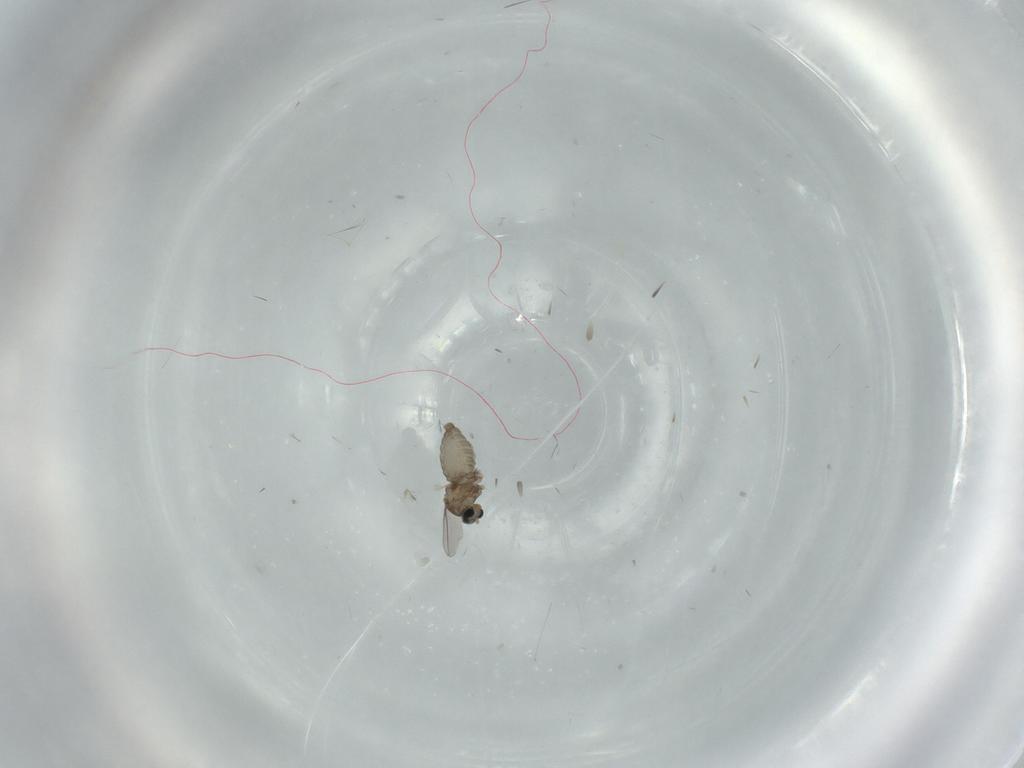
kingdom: Animalia
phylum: Arthropoda
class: Insecta
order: Diptera
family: Cecidomyiidae
